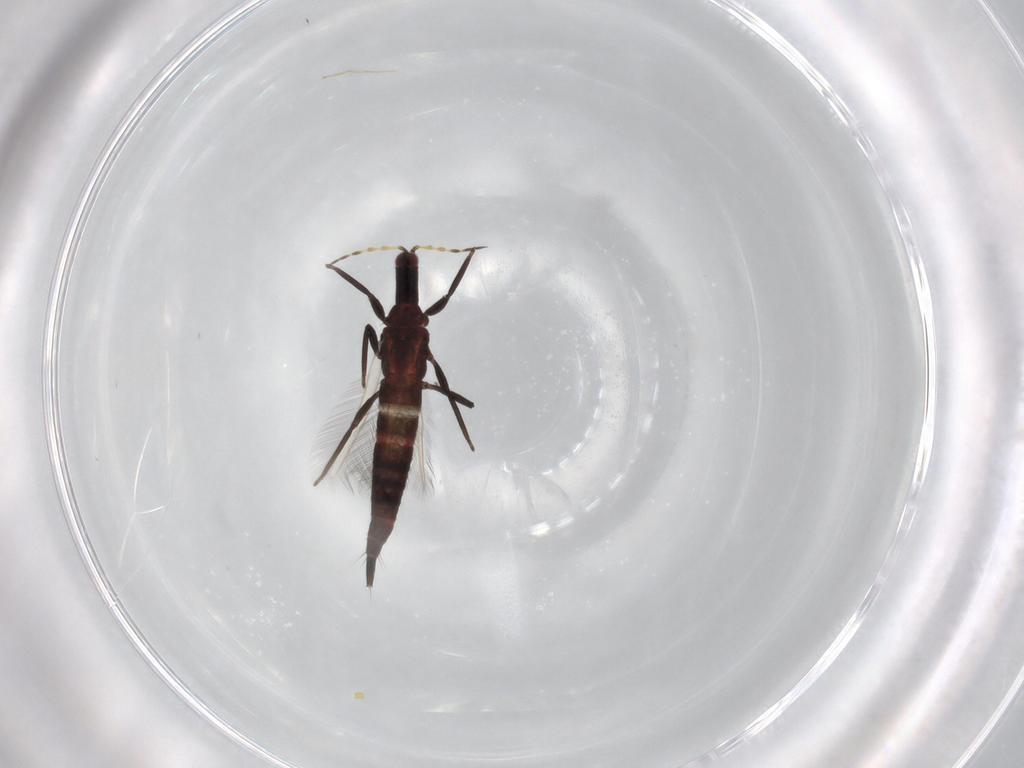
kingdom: Animalia
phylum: Arthropoda
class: Insecta
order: Thysanoptera
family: Phlaeothripidae
